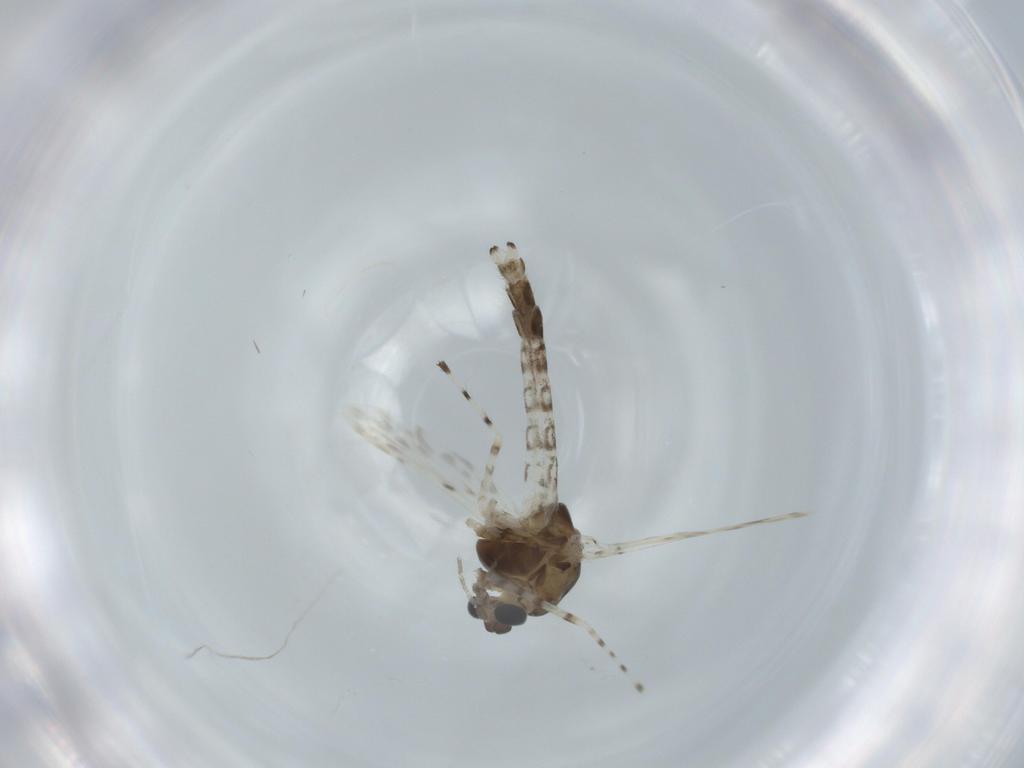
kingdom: Animalia
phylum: Arthropoda
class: Insecta
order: Diptera
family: Chironomidae
